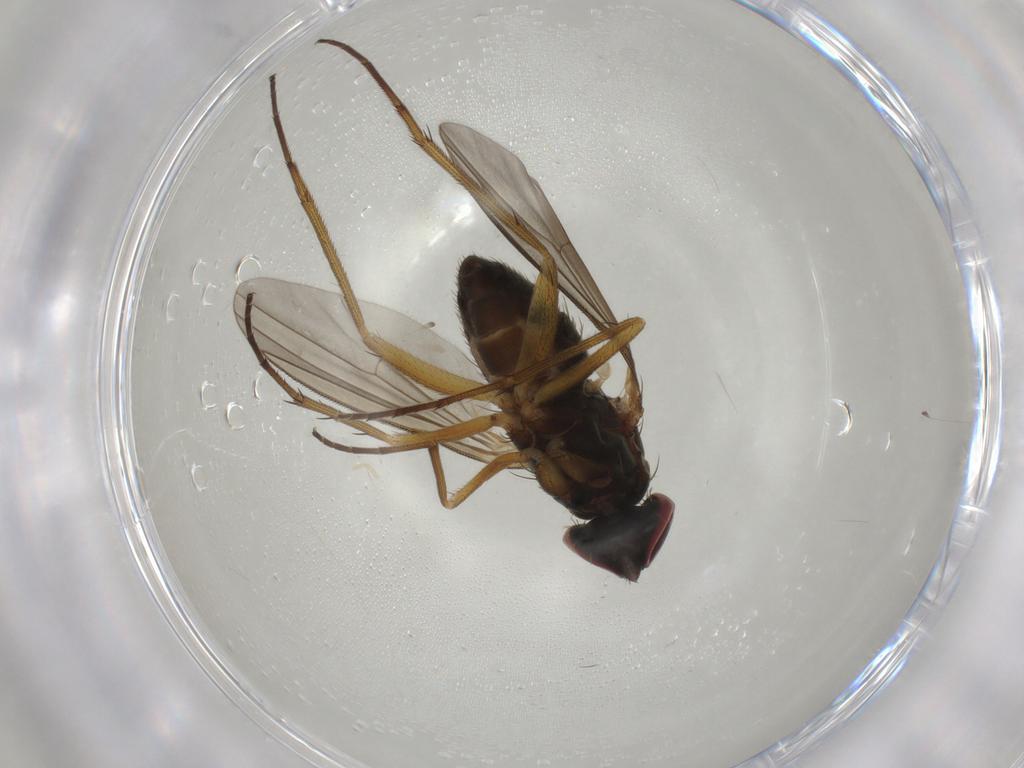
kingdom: Animalia
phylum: Arthropoda
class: Insecta
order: Diptera
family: Dolichopodidae
